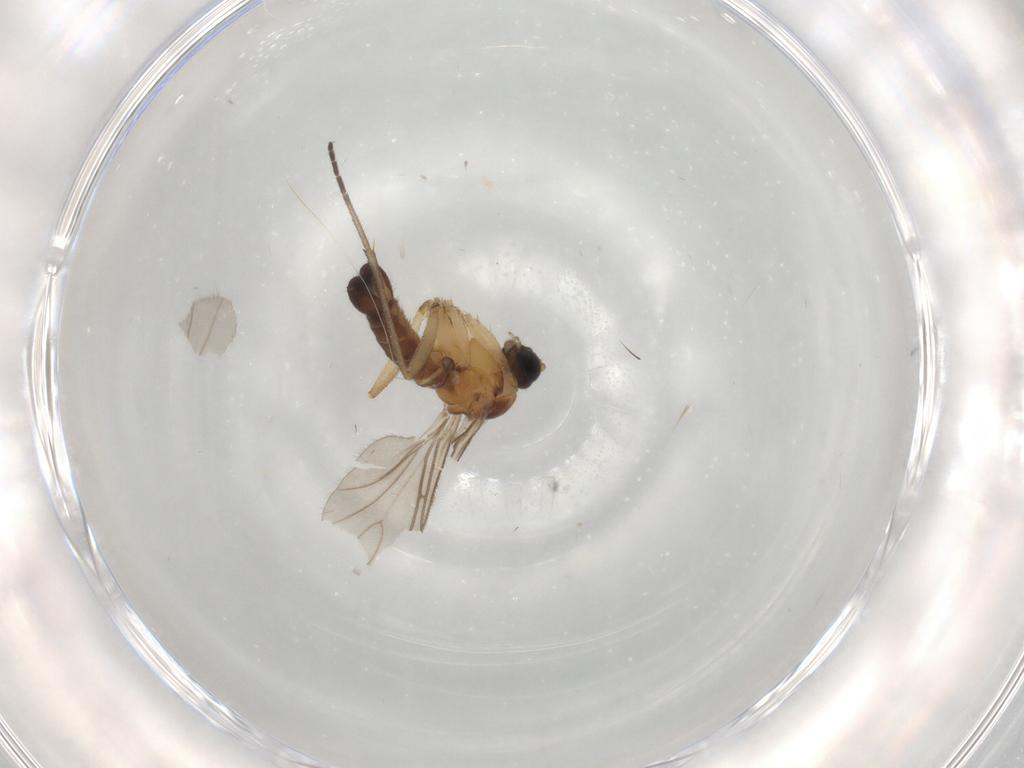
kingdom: Animalia
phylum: Arthropoda
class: Insecta
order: Diptera
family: Sciaridae
